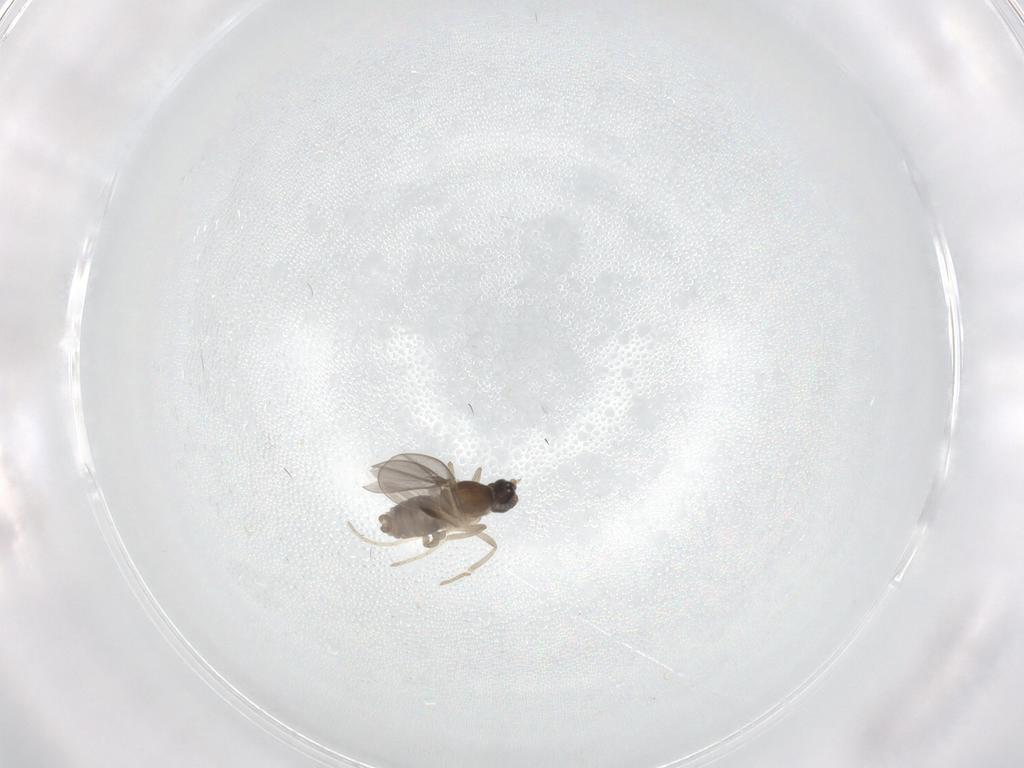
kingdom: Animalia
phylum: Arthropoda
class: Insecta
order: Diptera
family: Cecidomyiidae
